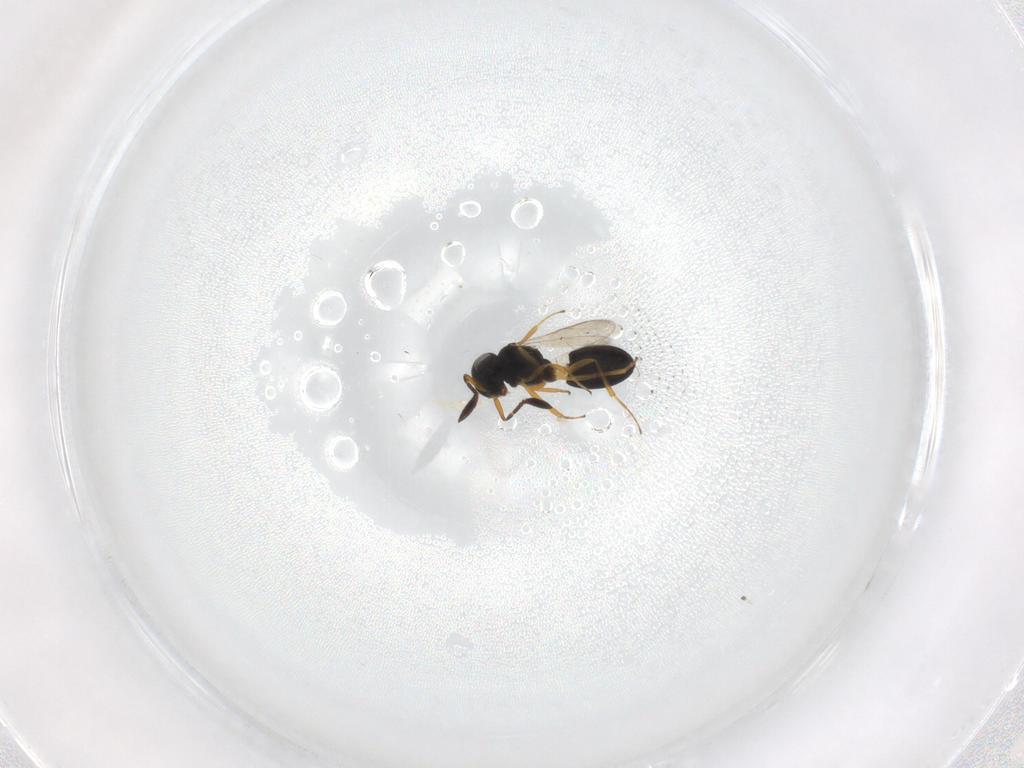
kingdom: Animalia
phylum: Arthropoda
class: Insecta
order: Hymenoptera
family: Scelionidae
